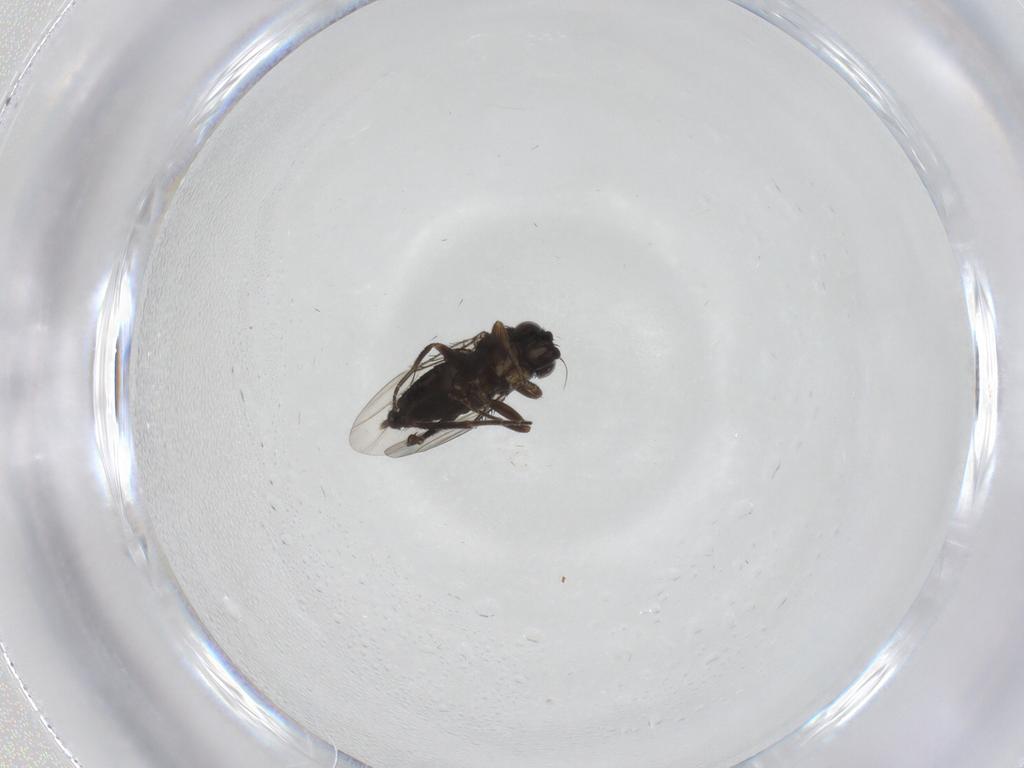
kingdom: Animalia
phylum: Arthropoda
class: Insecta
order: Diptera
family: Phoridae
